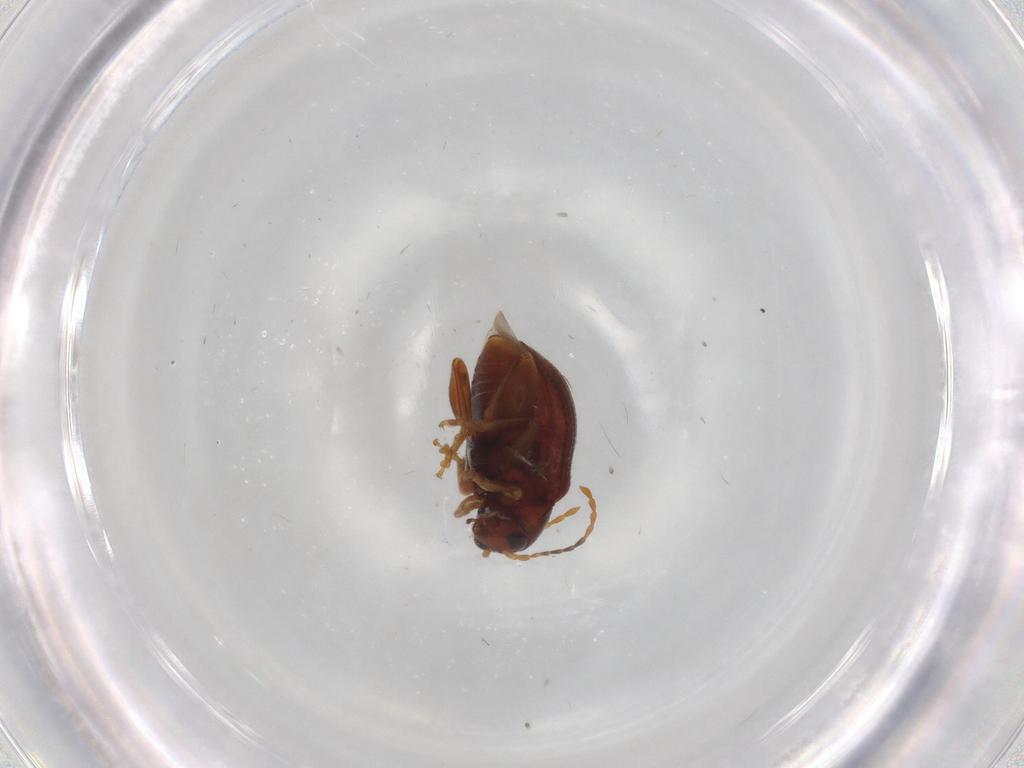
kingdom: Animalia
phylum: Arthropoda
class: Insecta
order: Coleoptera
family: Chrysomelidae
